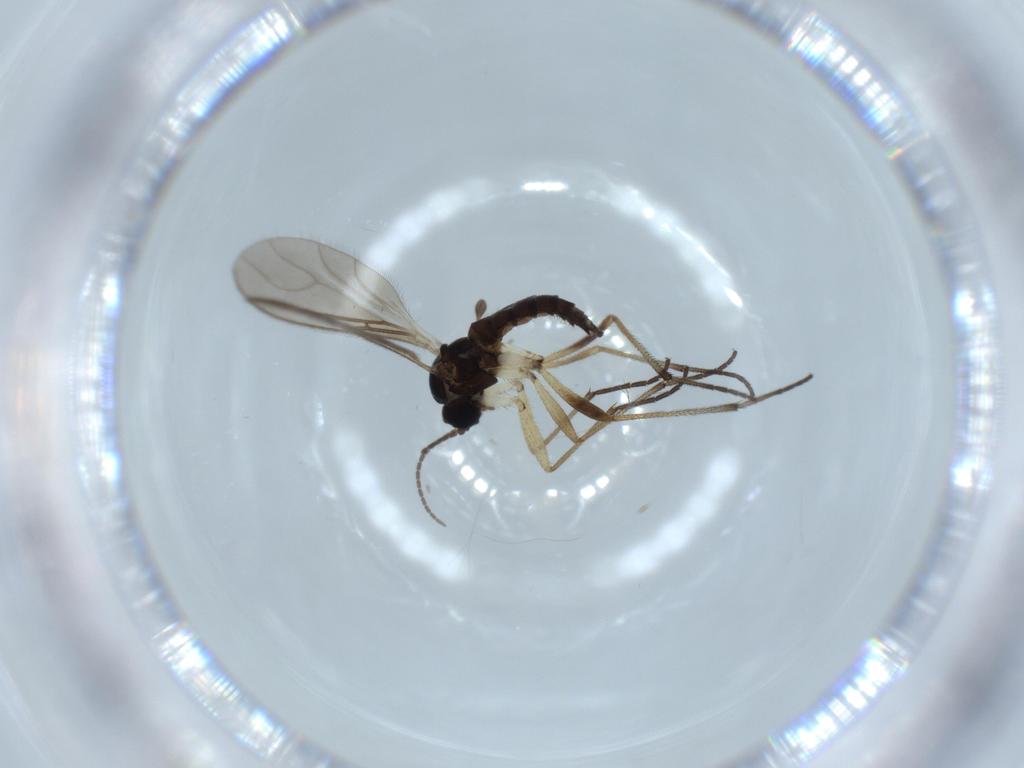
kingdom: Animalia
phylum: Arthropoda
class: Insecta
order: Diptera
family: Sciaridae
